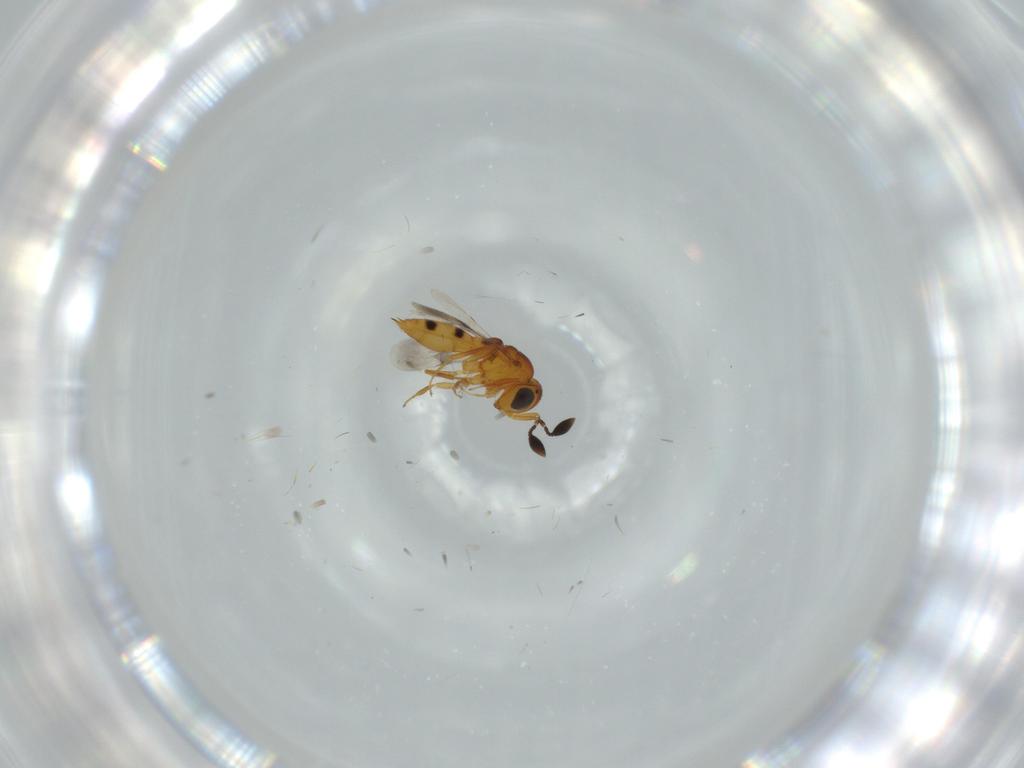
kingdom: Animalia
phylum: Arthropoda
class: Insecta
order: Hymenoptera
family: Scelionidae
